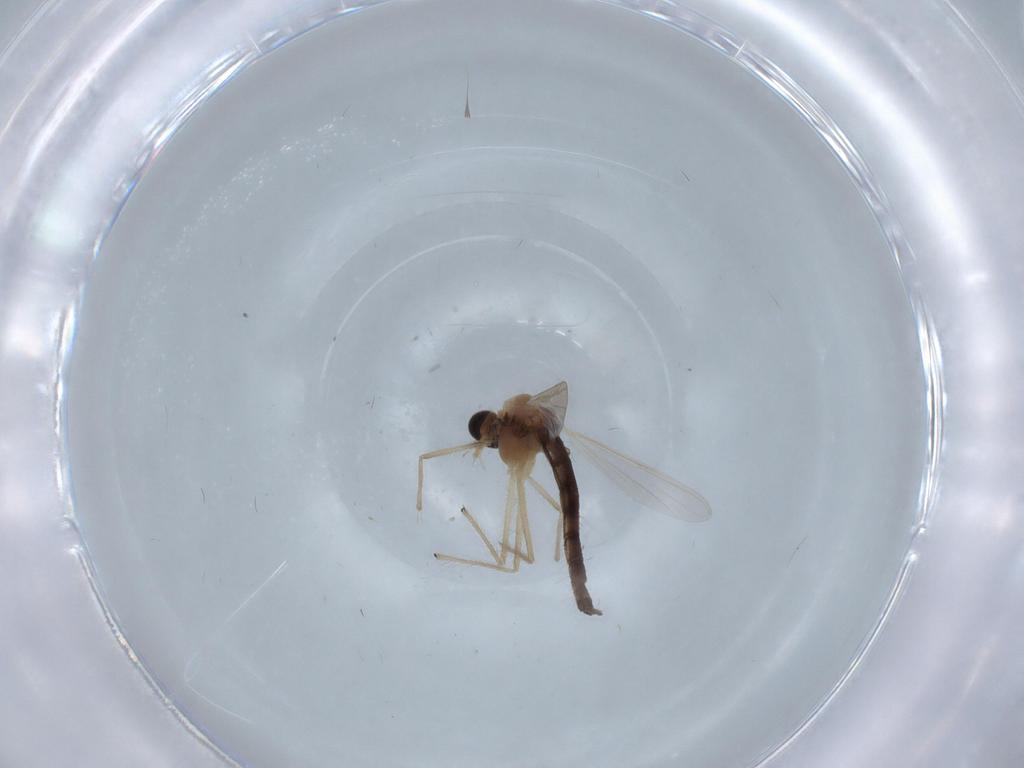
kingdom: Animalia
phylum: Arthropoda
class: Insecta
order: Diptera
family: Chironomidae
